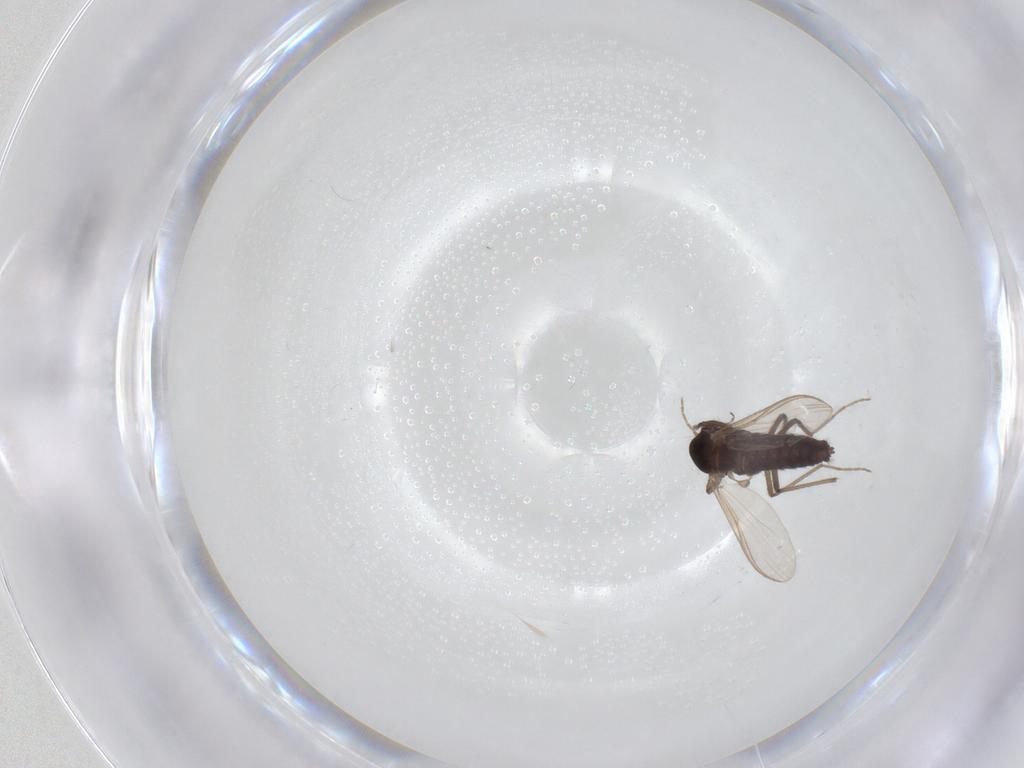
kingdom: Animalia
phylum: Arthropoda
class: Insecta
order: Diptera
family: Chironomidae
